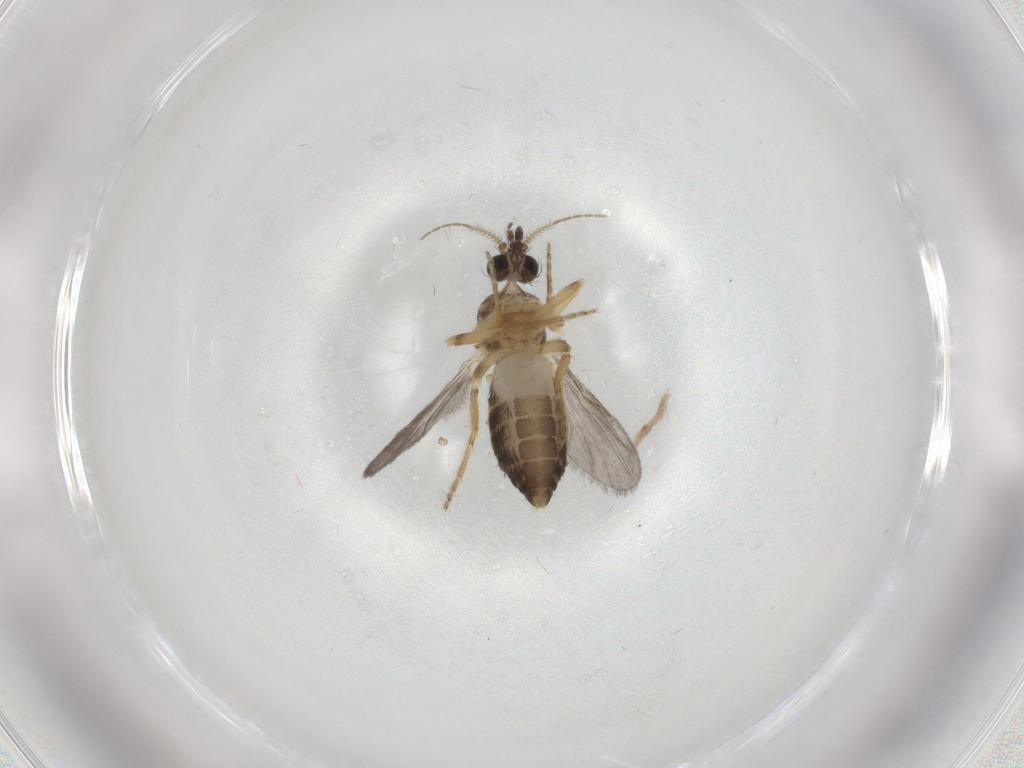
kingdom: Animalia
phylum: Arthropoda
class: Insecta
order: Diptera
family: Ceratopogonidae
